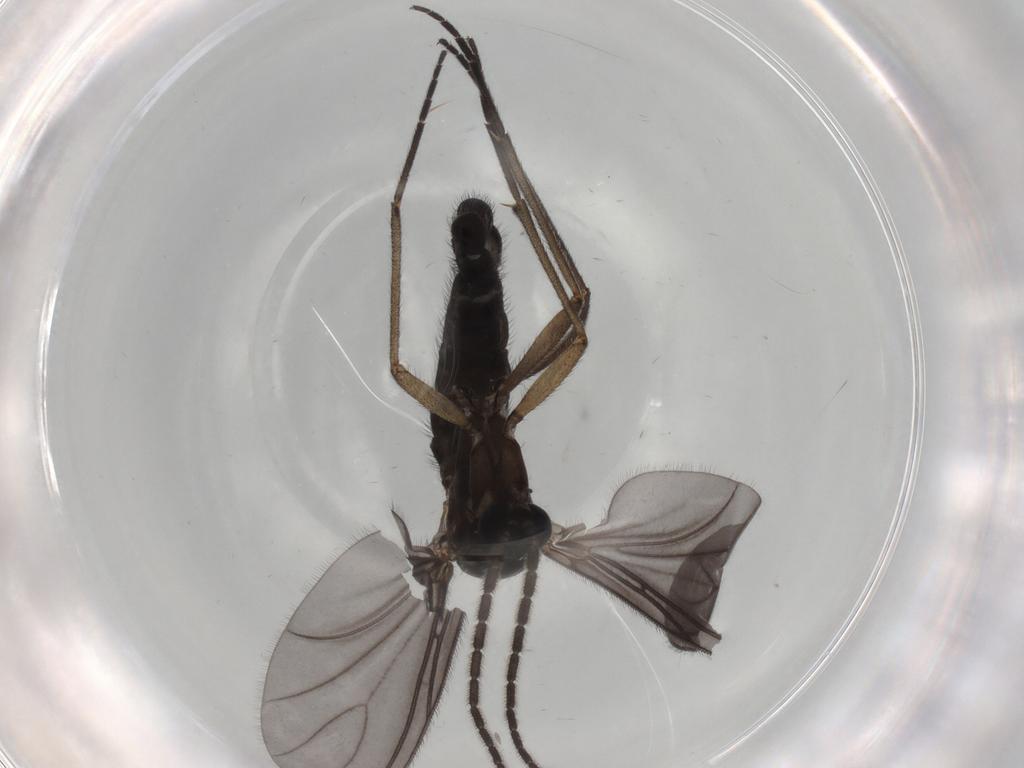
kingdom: Animalia
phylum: Arthropoda
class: Insecta
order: Diptera
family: Sciaridae
